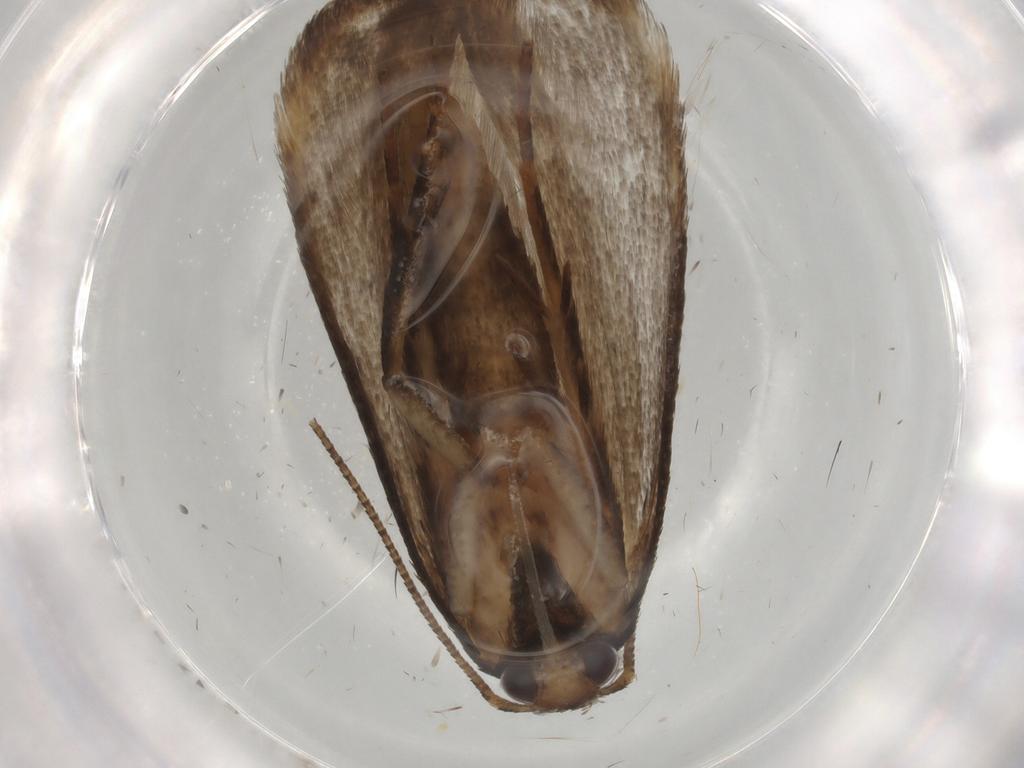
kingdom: Animalia
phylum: Arthropoda
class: Insecta
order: Lepidoptera
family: Gelechiidae
